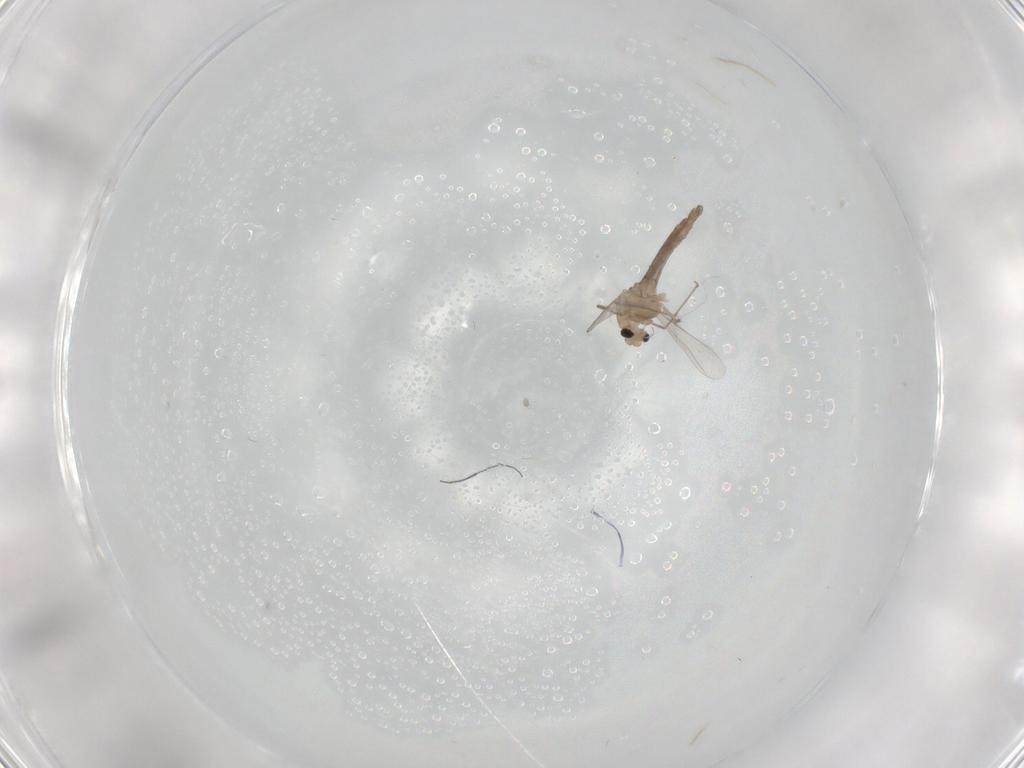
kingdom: Animalia
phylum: Arthropoda
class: Insecta
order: Diptera
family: Chironomidae
